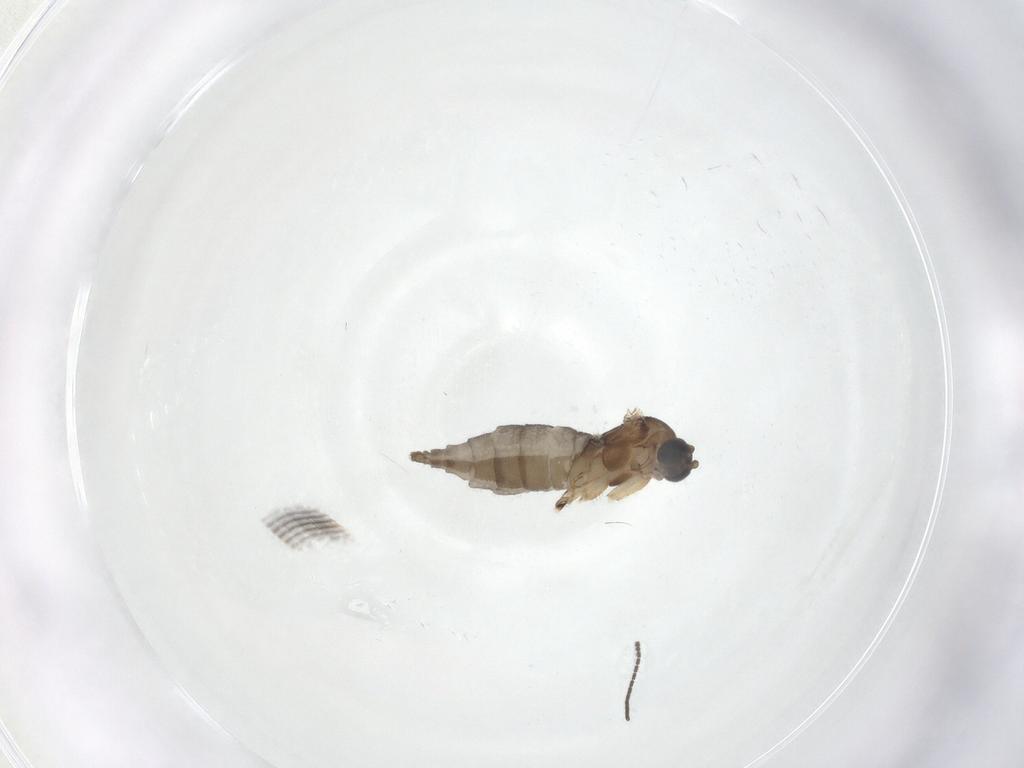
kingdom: Animalia
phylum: Arthropoda
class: Insecta
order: Diptera
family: Sciaridae
